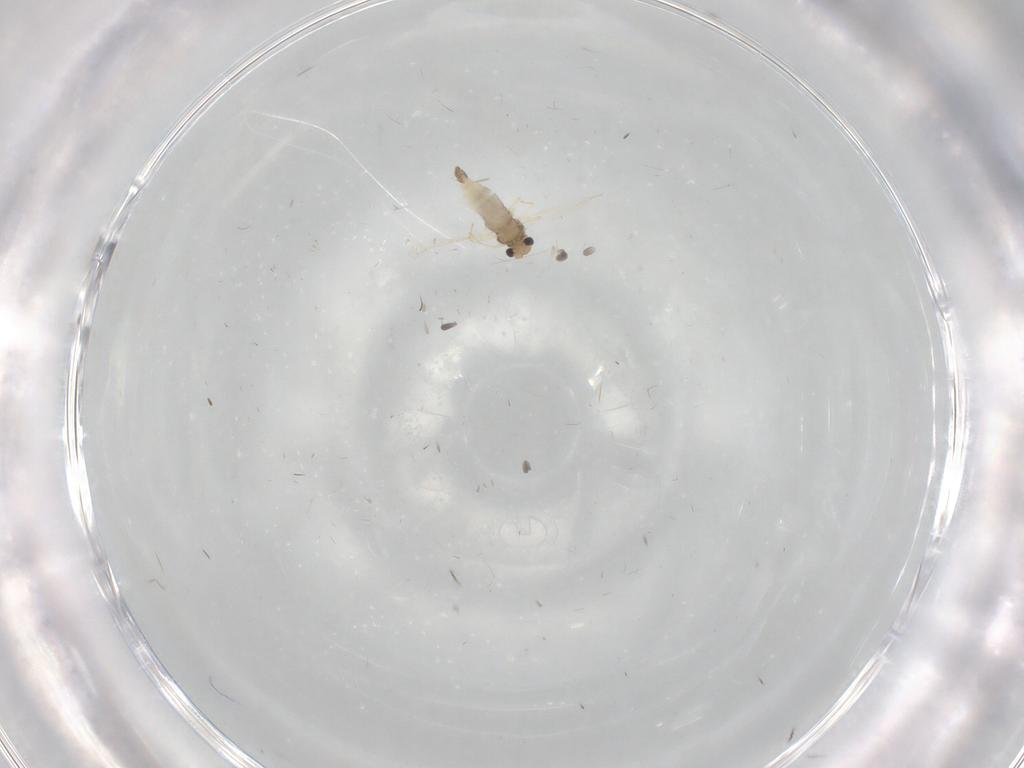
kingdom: Animalia
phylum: Arthropoda
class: Insecta
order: Diptera
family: Chironomidae
